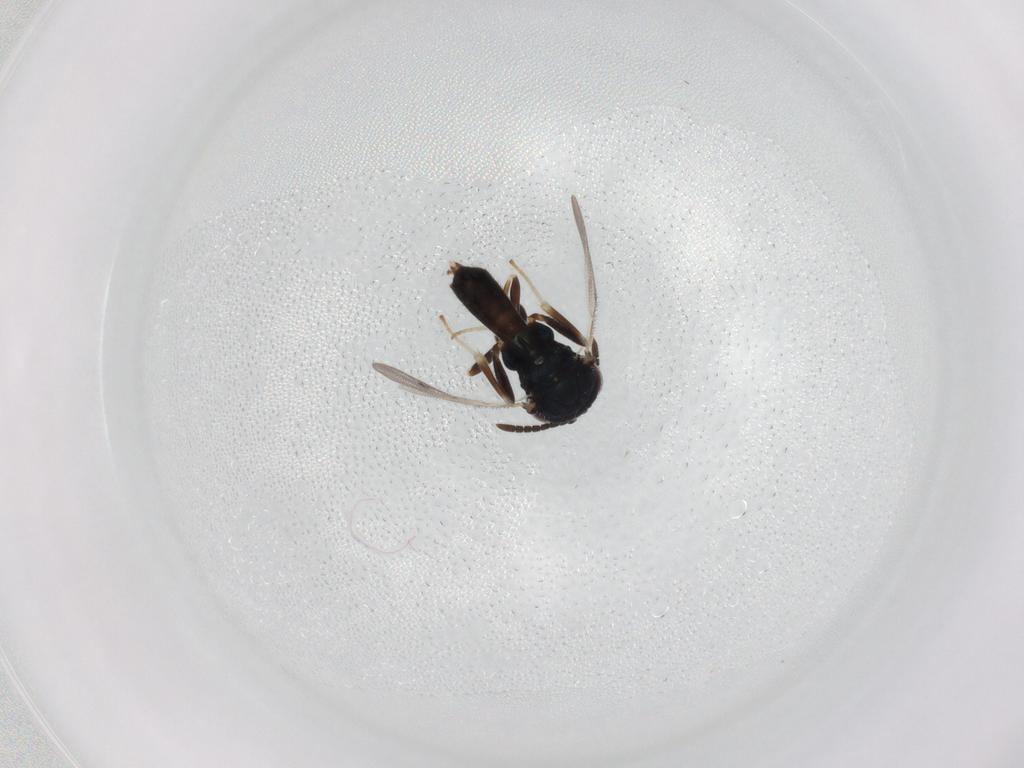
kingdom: Animalia
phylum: Arthropoda
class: Insecta
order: Hymenoptera
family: Pteromalidae
